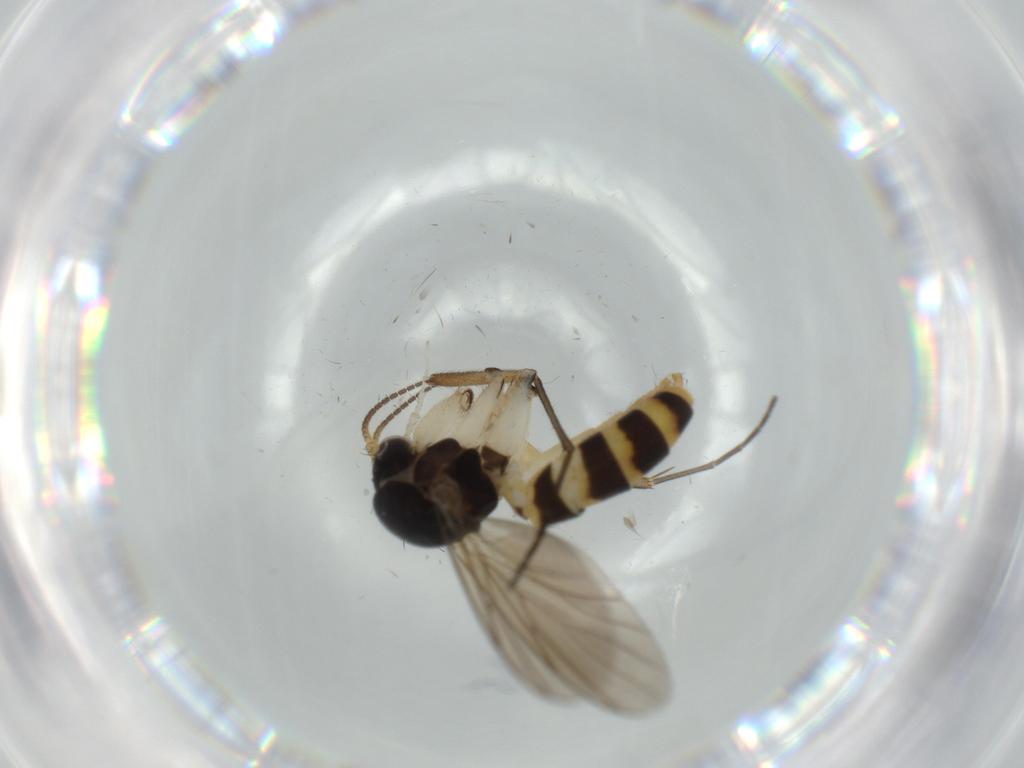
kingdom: Animalia
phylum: Arthropoda
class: Insecta
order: Diptera
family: Mycetophilidae
